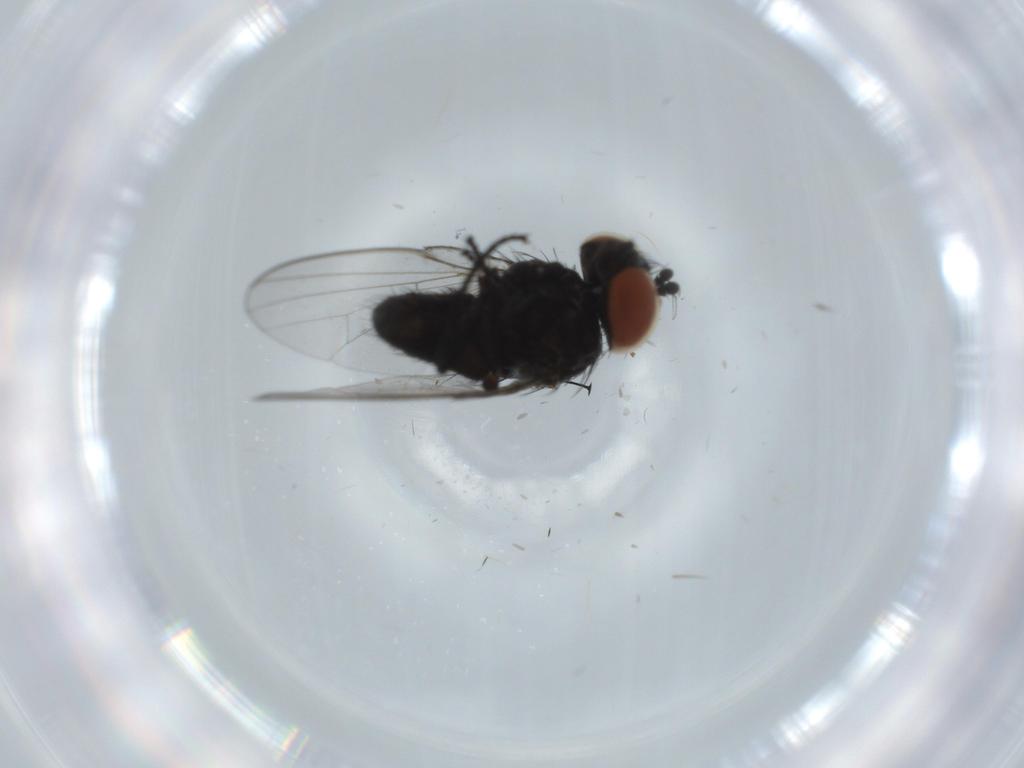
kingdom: Animalia
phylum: Arthropoda
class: Insecta
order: Diptera
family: Milichiidae
